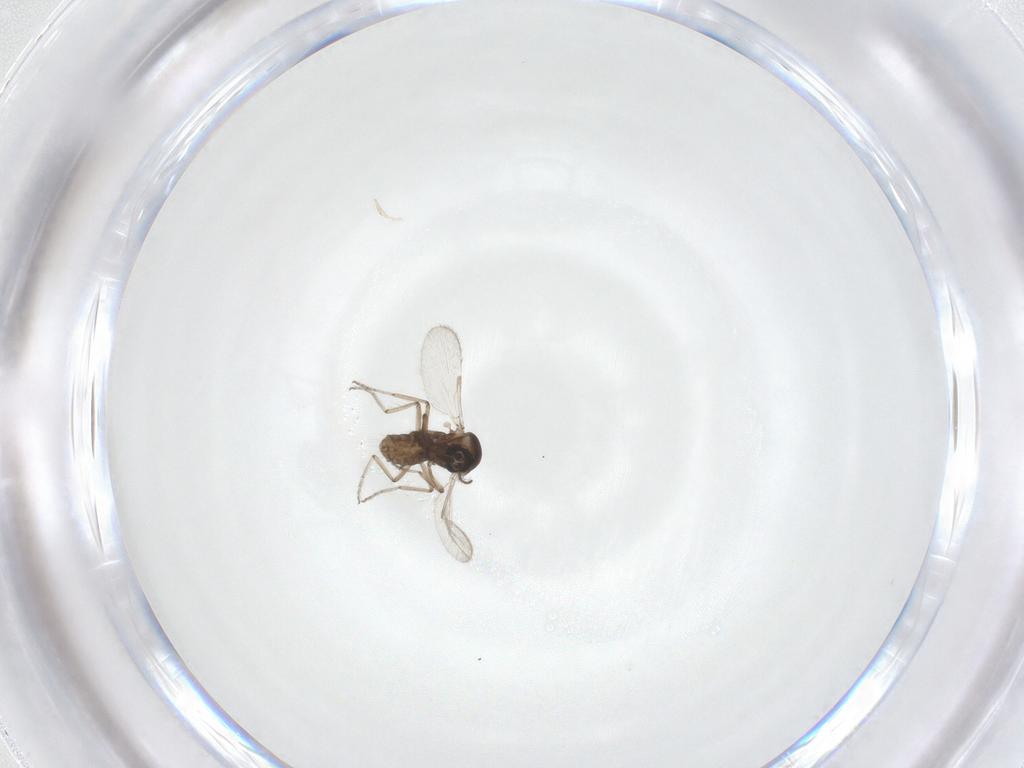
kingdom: Animalia
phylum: Arthropoda
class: Insecta
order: Diptera
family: Ceratopogonidae
